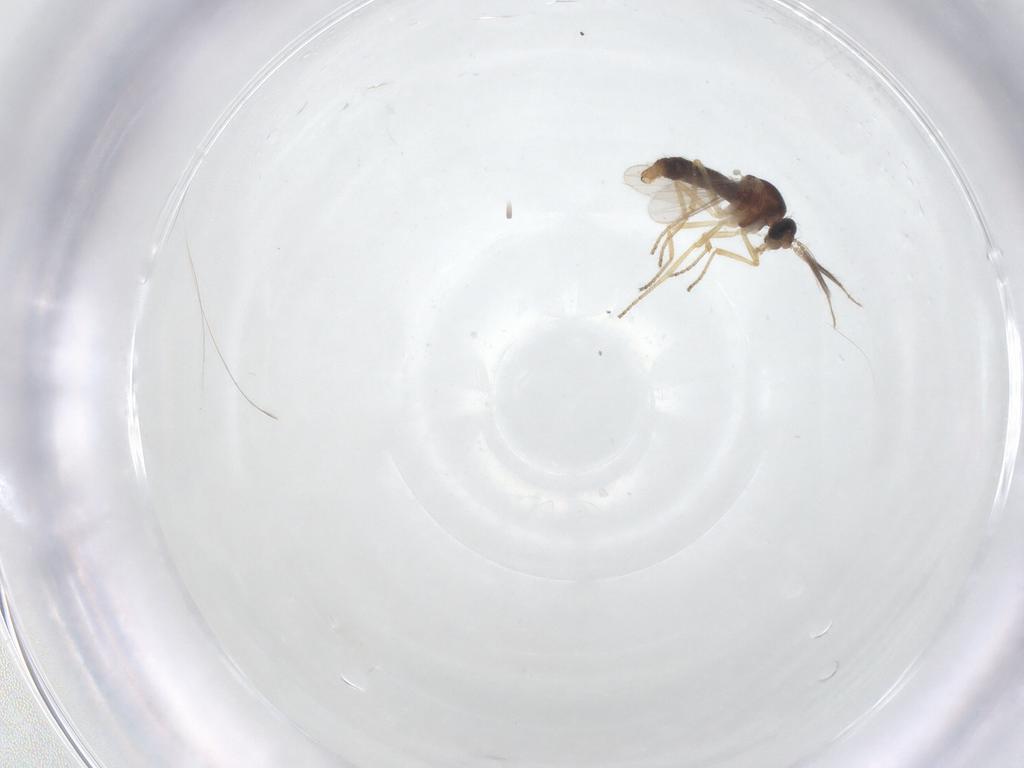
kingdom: Animalia
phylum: Arthropoda
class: Insecta
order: Diptera
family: Ceratopogonidae
